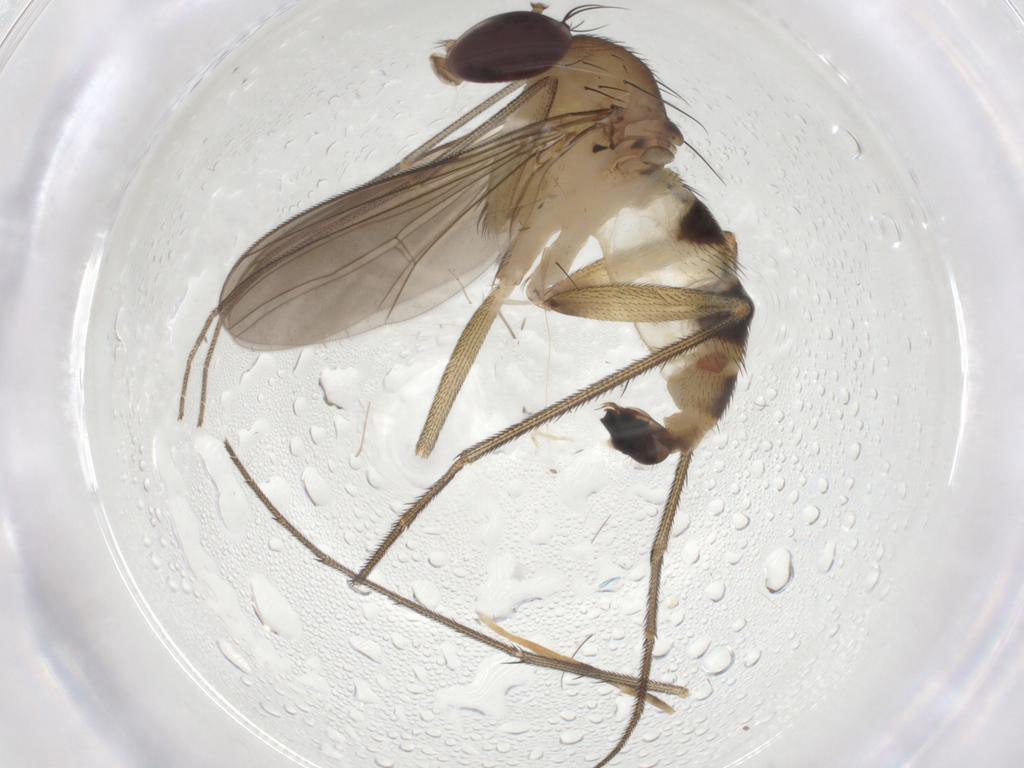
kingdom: Animalia
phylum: Arthropoda
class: Insecta
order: Diptera
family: Dolichopodidae
